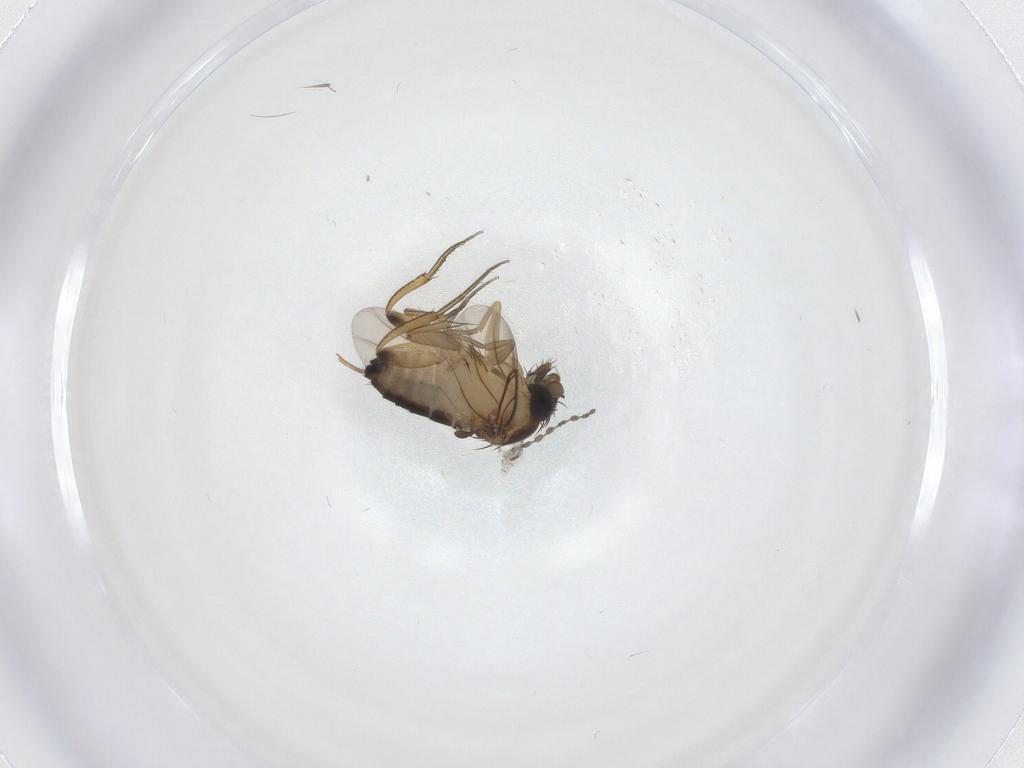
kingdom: Animalia
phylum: Arthropoda
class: Insecta
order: Diptera
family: Phoridae
